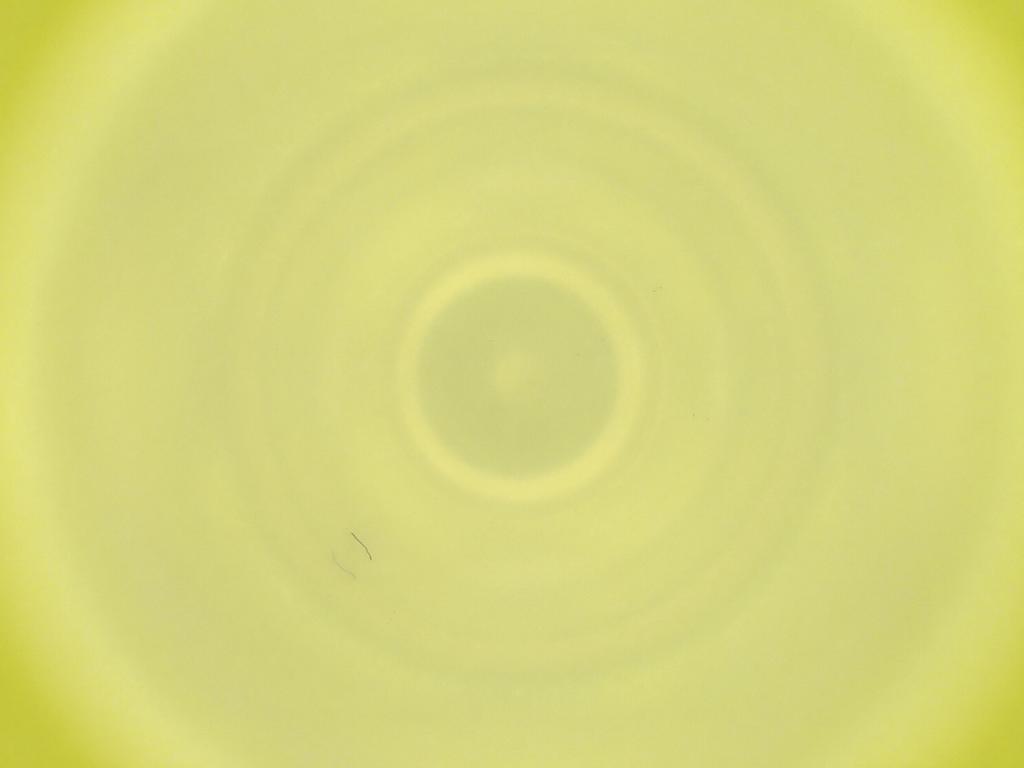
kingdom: Animalia
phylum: Arthropoda
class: Insecta
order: Diptera
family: Cecidomyiidae
